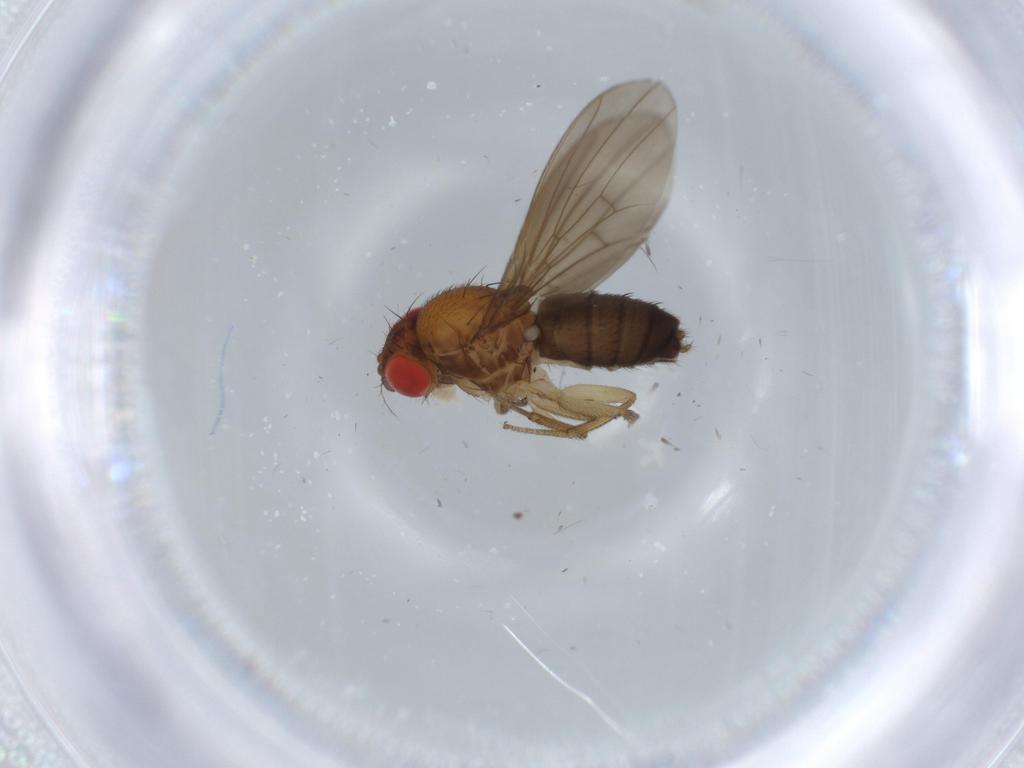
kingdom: Animalia
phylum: Arthropoda
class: Insecta
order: Diptera
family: Drosophilidae
